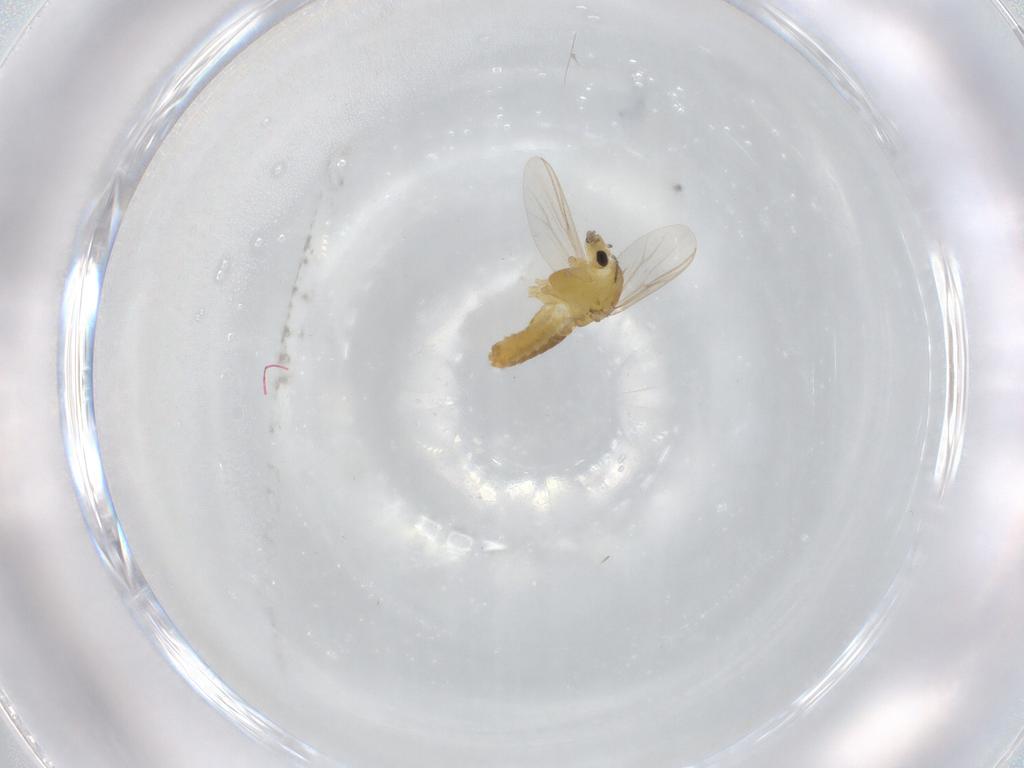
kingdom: Animalia
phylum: Arthropoda
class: Insecta
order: Diptera
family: Chironomidae
